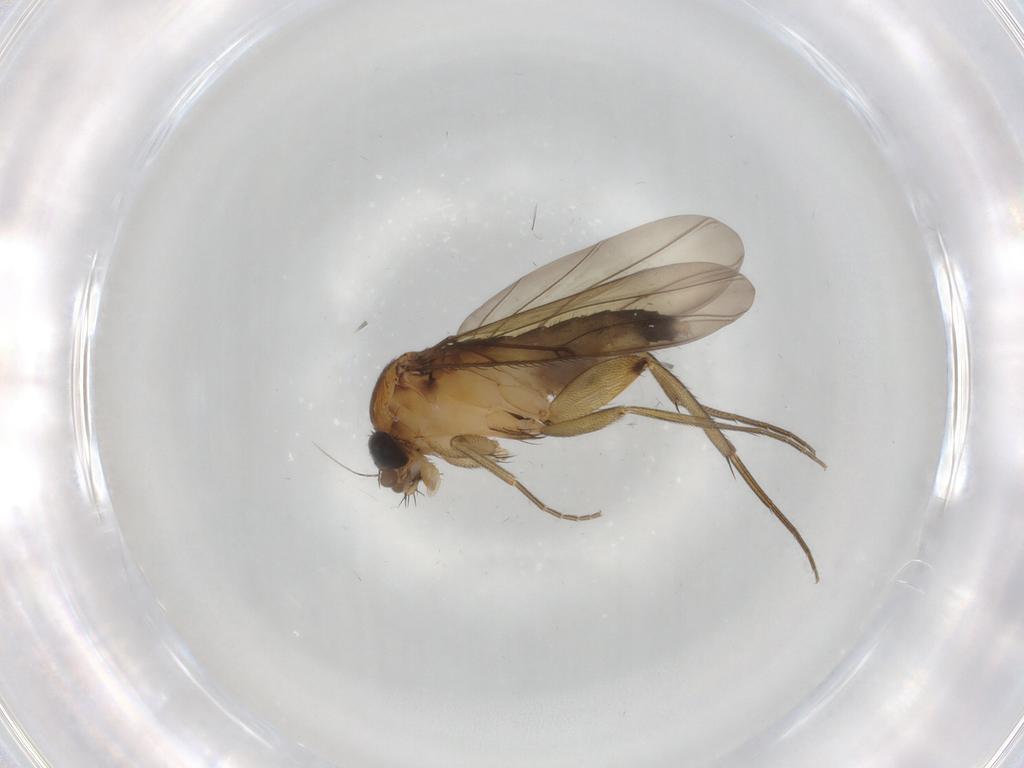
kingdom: Animalia
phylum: Arthropoda
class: Insecta
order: Diptera
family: Phoridae
